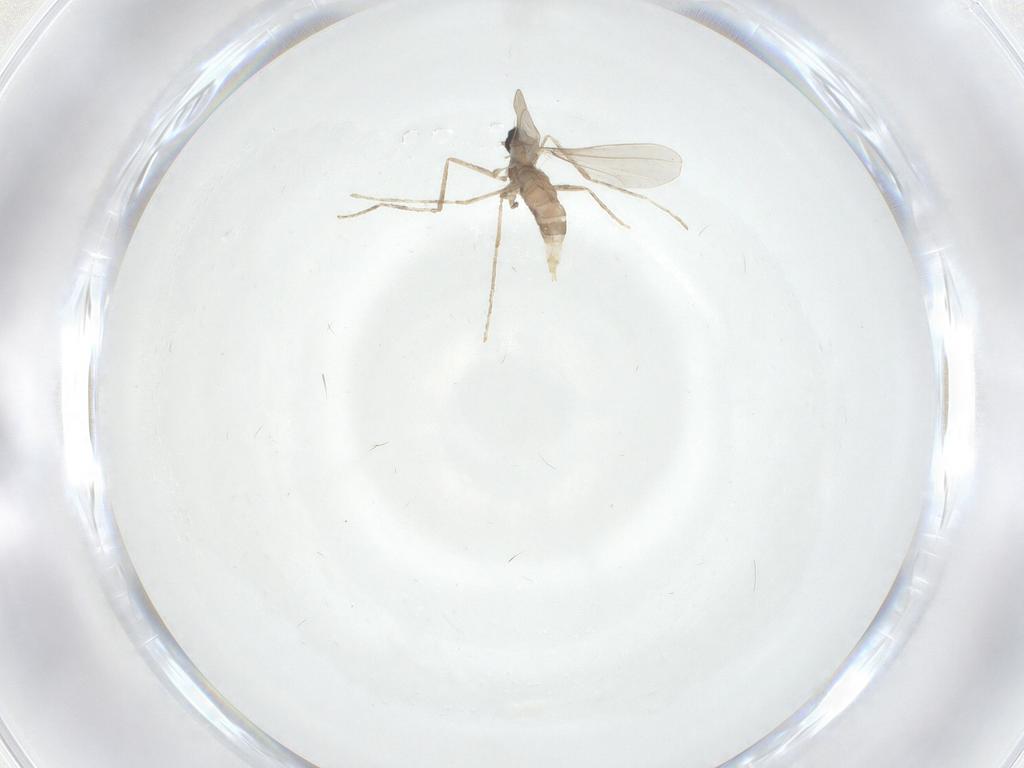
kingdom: Animalia
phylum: Arthropoda
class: Insecta
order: Diptera
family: Cecidomyiidae
